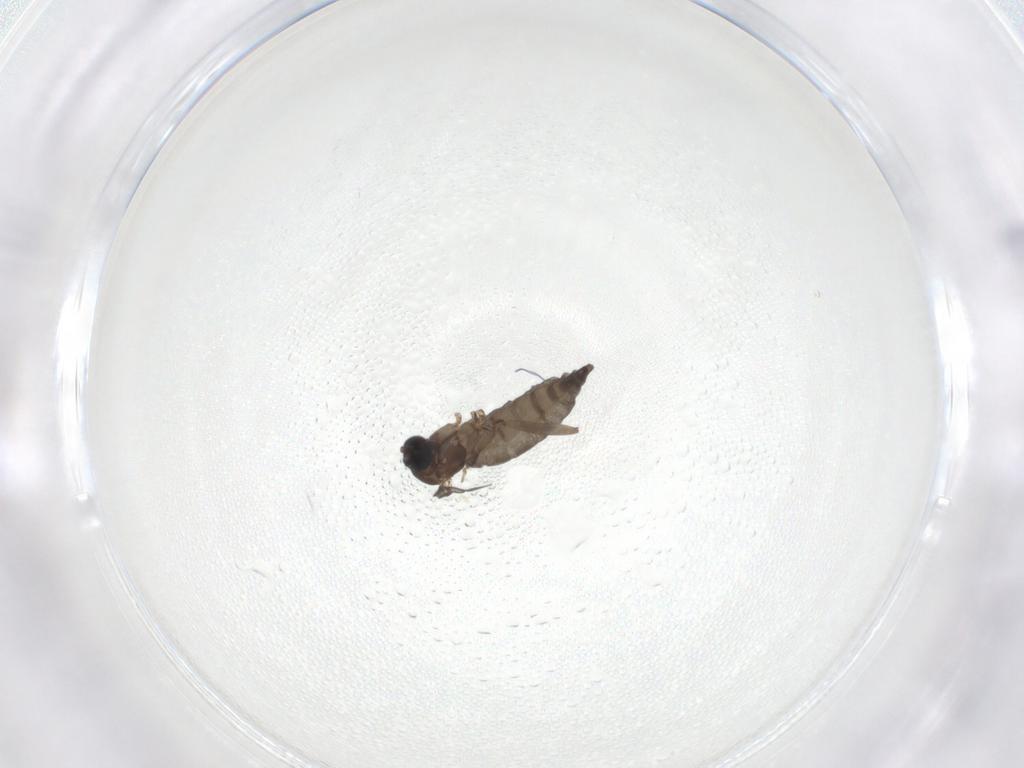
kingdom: Animalia
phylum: Arthropoda
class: Insecta
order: Diptera
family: Sciaridae
